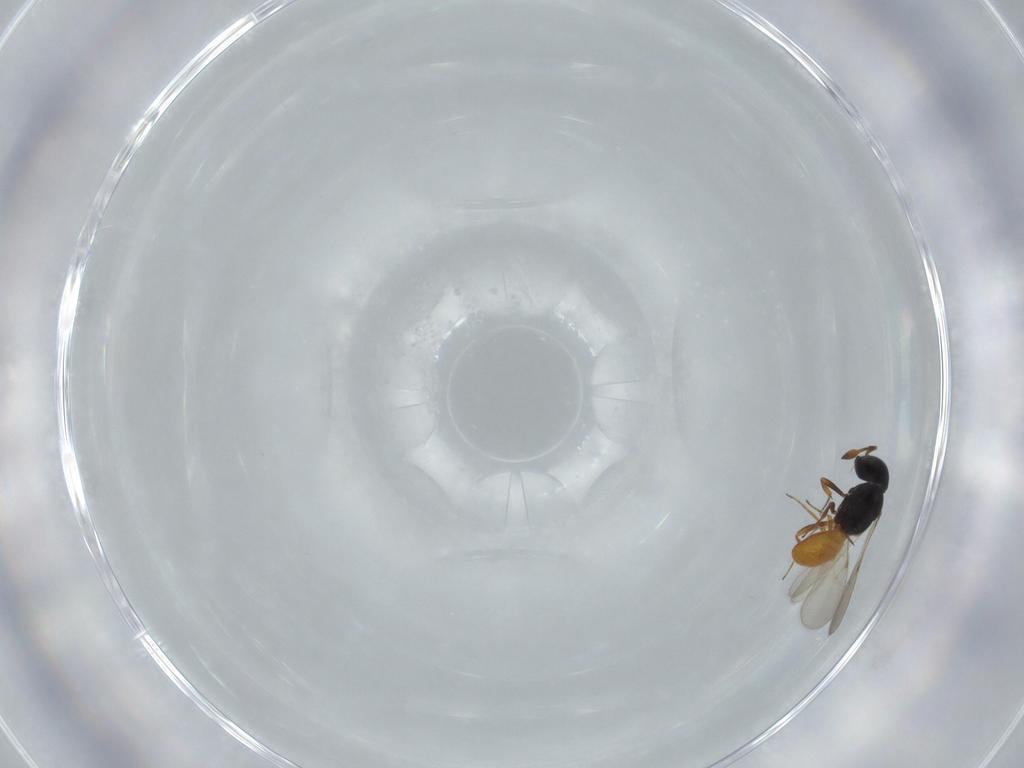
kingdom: Animalia
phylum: Arthropoda
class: Insecta
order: Hymenoptera
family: Scelionidae
